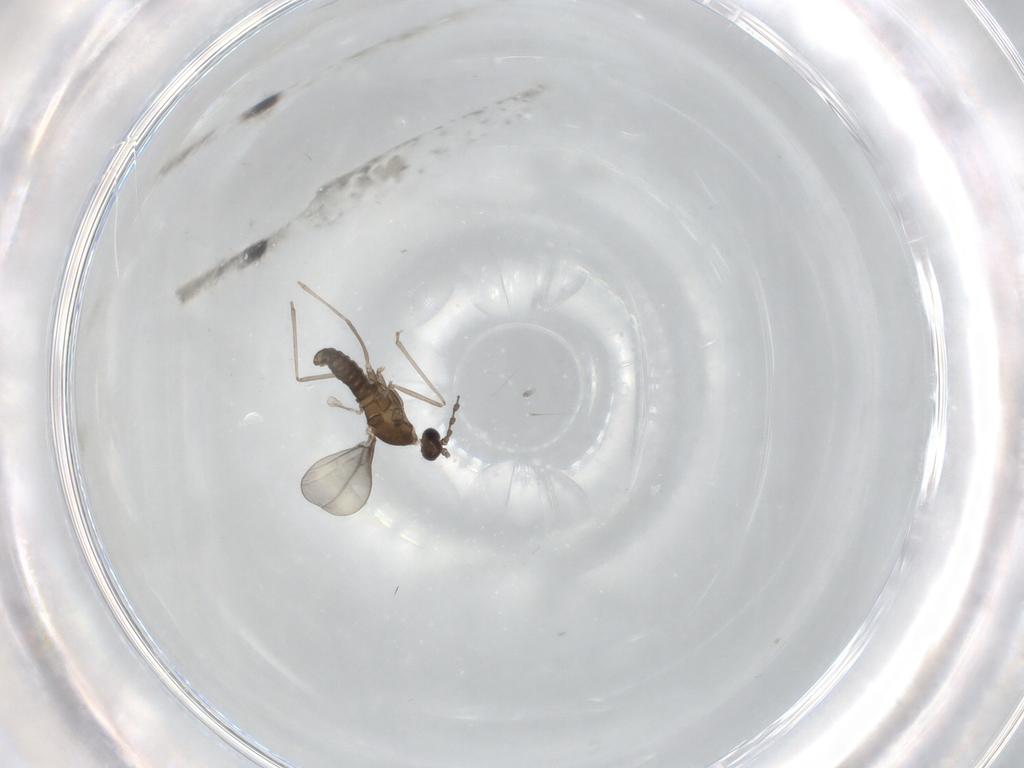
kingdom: Animalia
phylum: Arthropoda
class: Insecta
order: Diptera
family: Cecidomyiidae
